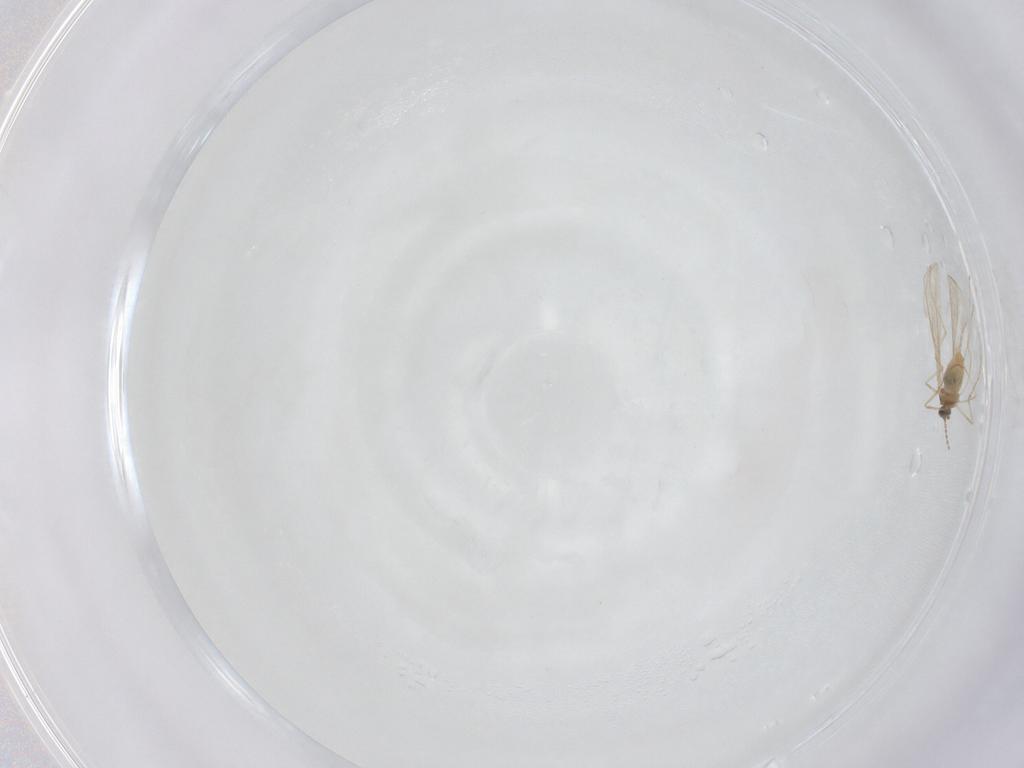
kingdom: Animalia
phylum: Arthropoda
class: Insecta
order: Diptera
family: Cecidomyiidae
